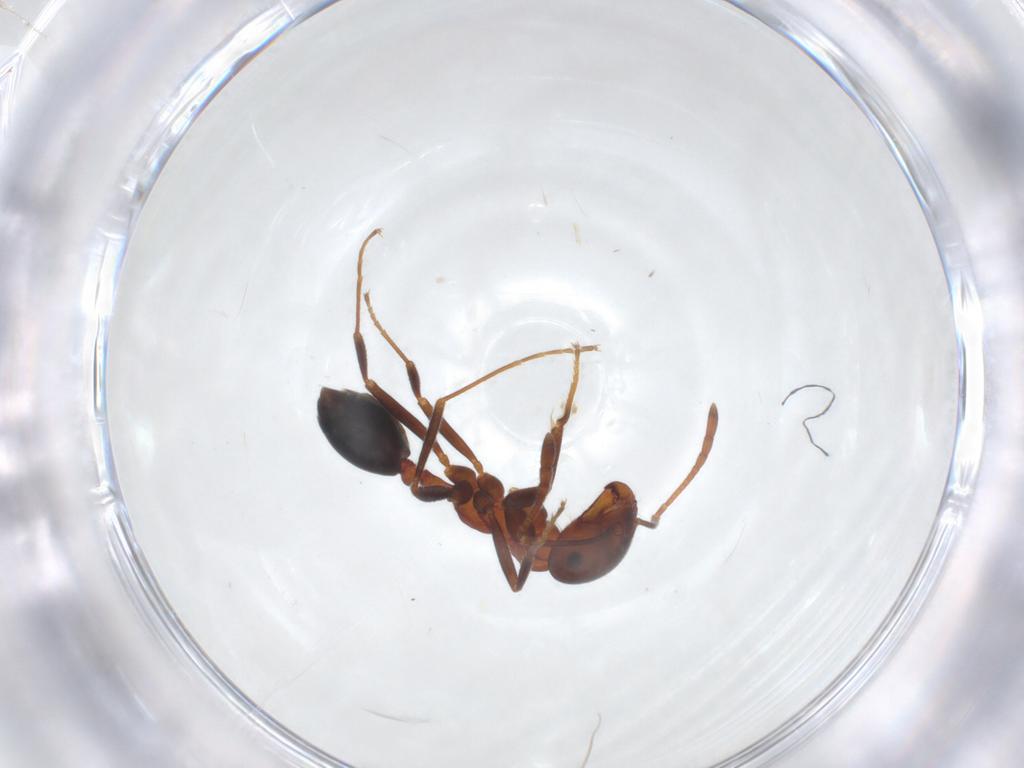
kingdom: Animalia
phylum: Arthropoda
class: Insecta
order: Hymenoptera
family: Formicidae
